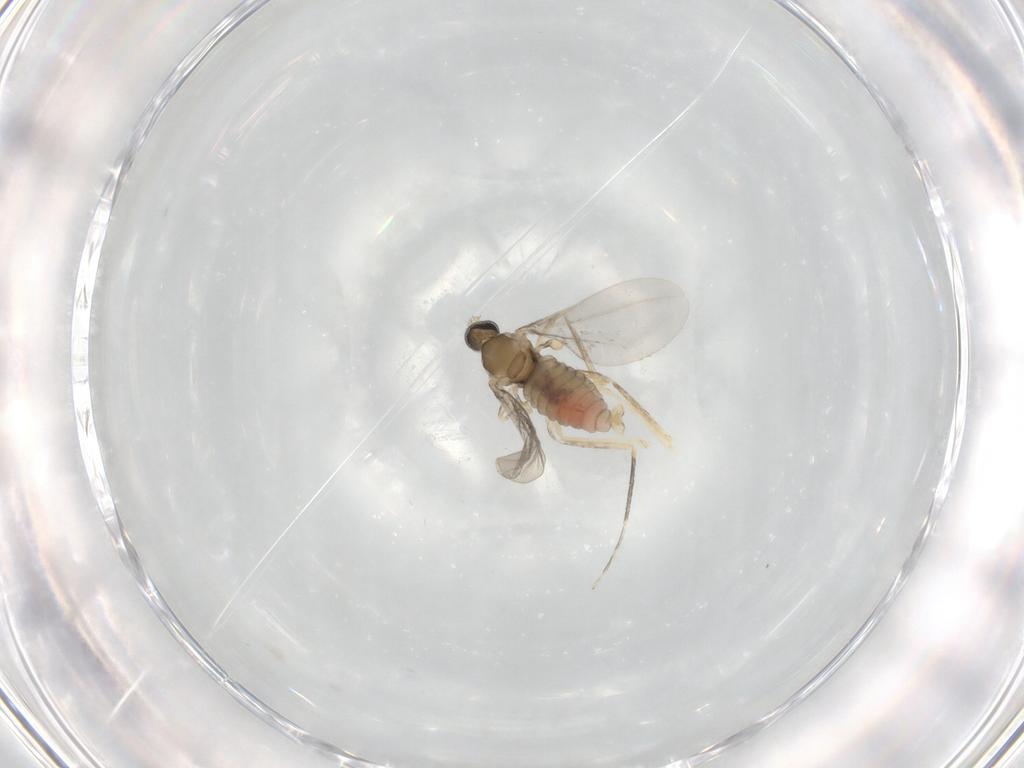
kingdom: Animalia
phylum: Arthropoda
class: Insecta
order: Diptera
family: Cecidomyiidae
